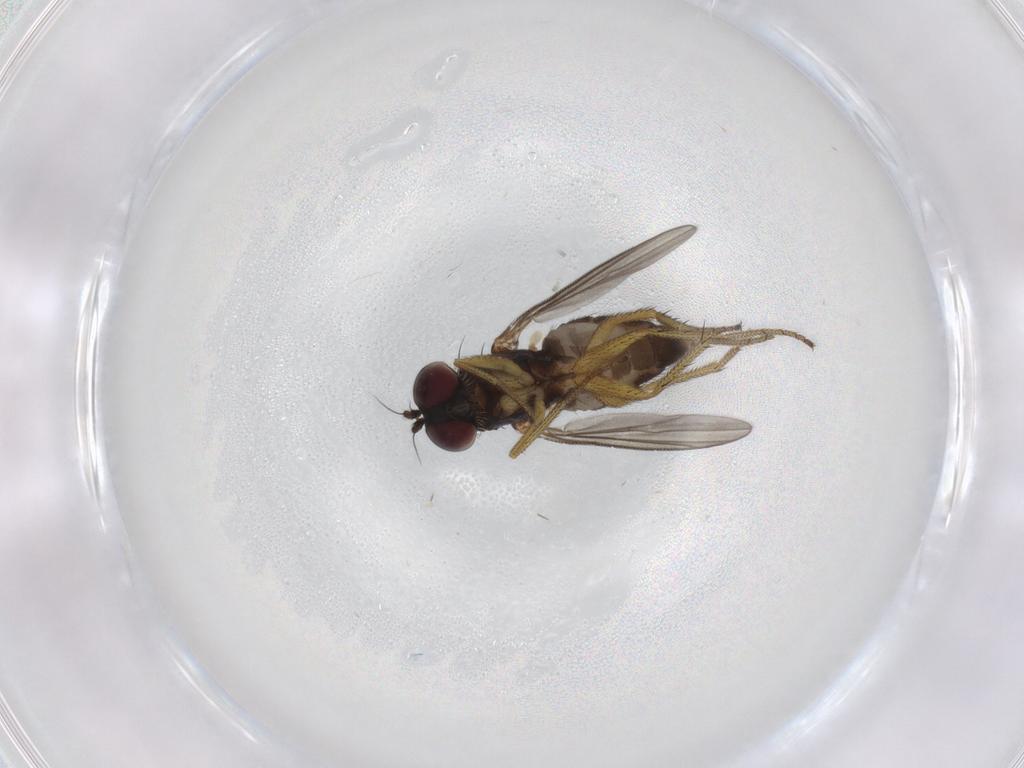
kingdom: Animalia
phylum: Arthropoda
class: Insecta
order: Diptera
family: Dolichopodidae
